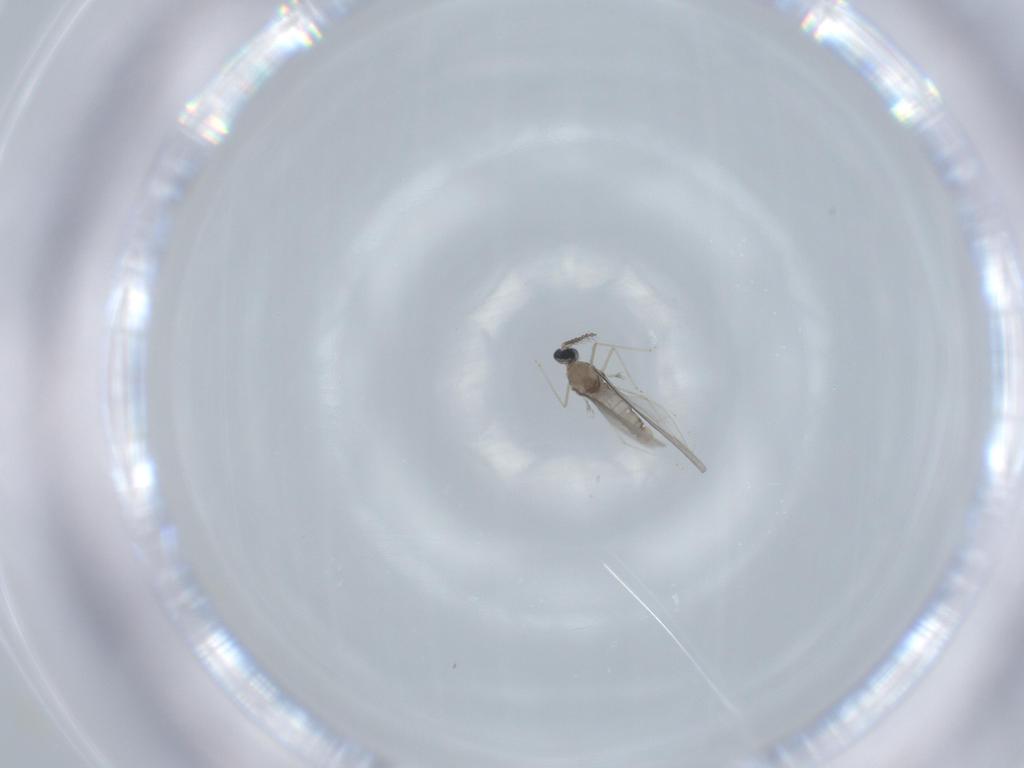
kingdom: Animalia
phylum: Arthropoda
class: Insecta
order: Diptera
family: Cecidomyiidae
